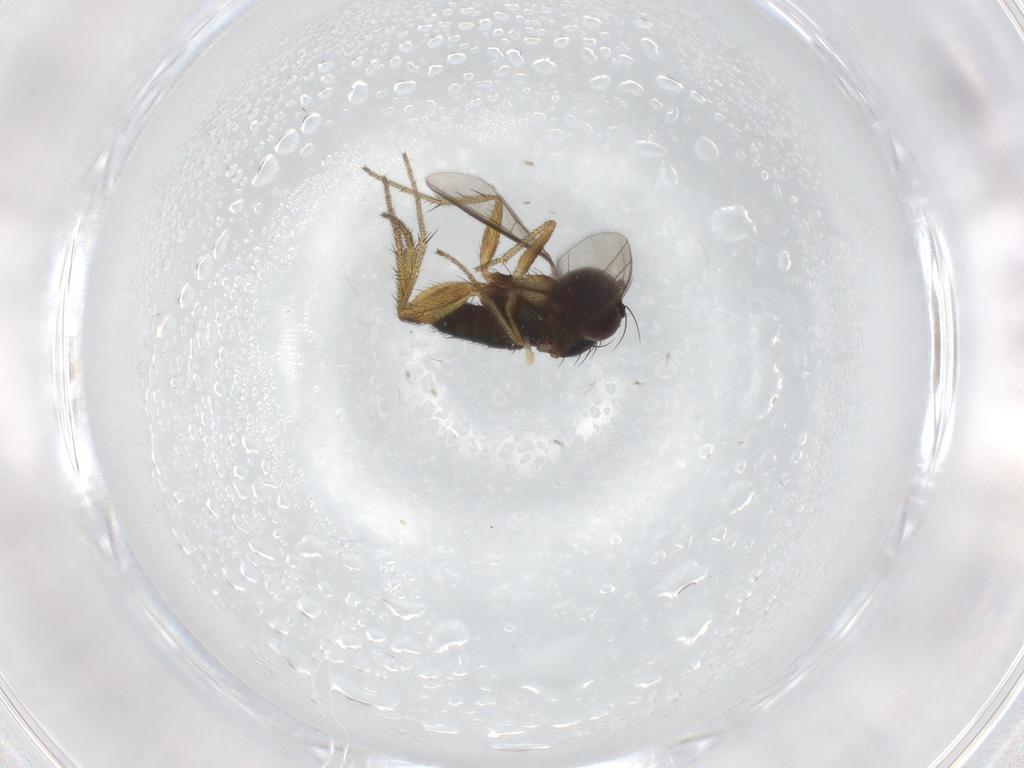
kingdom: Animalia
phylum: Arthropoda
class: Insecta
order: Diptera
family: Dolichopodidae
